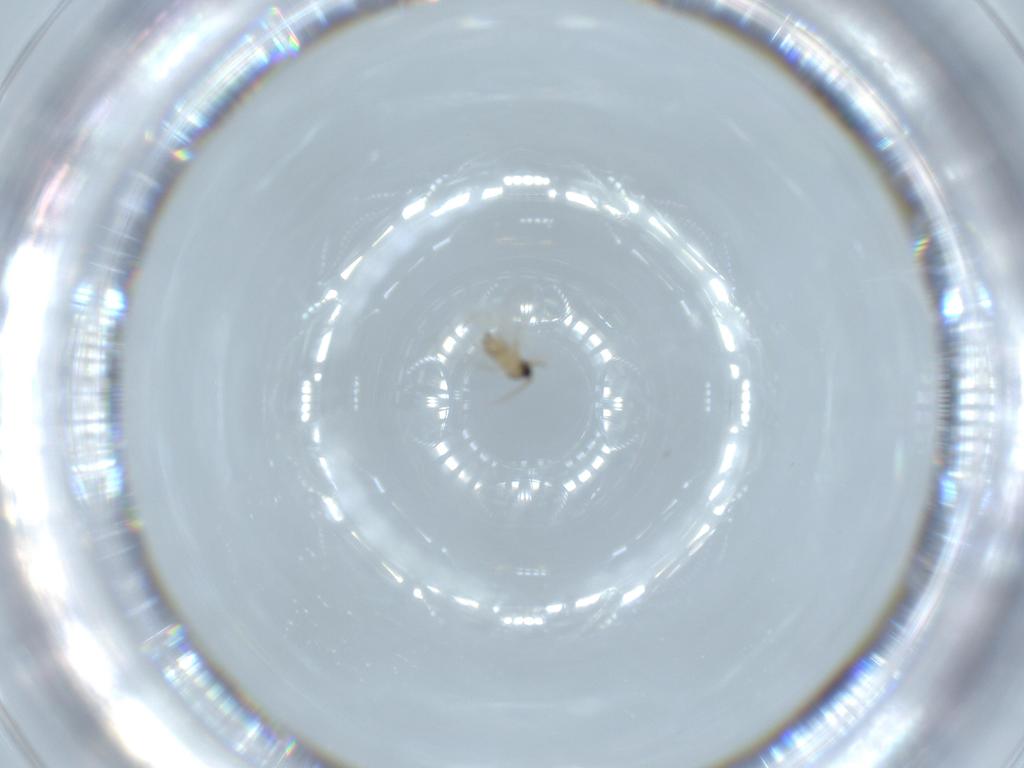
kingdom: Animalia
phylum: Arthropoda
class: Insecta
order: Diptera
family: Cecidomyiidae
